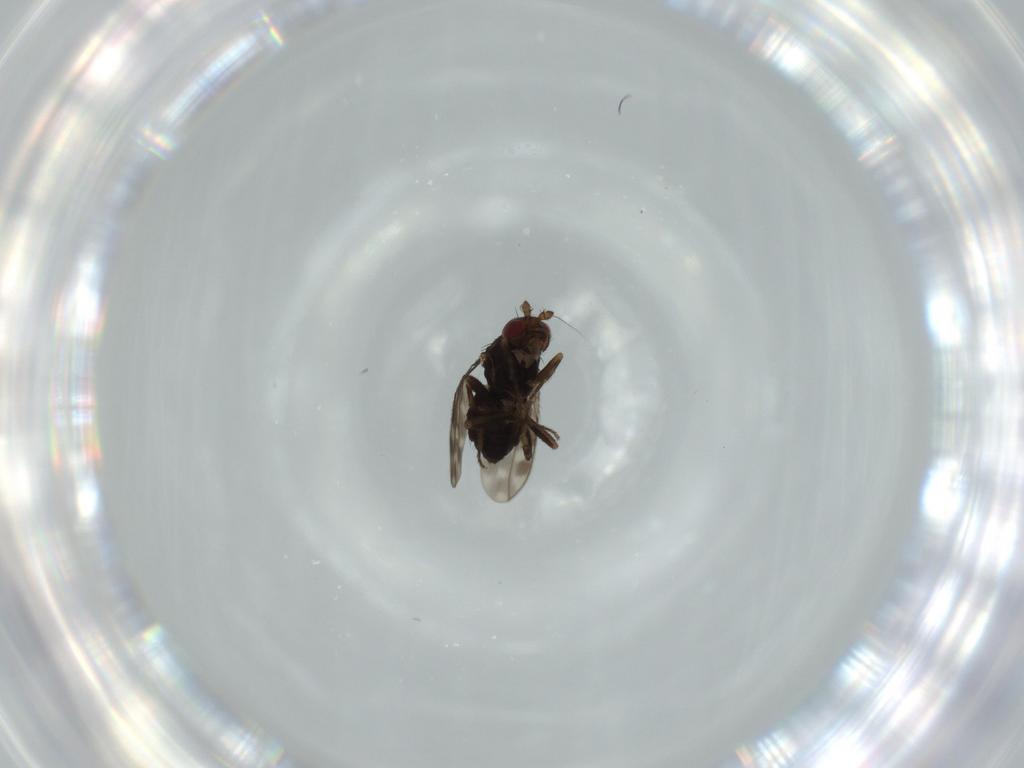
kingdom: Animalia
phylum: Arthropoda
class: Insecta
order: Diptera
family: Sphaeroceridae
